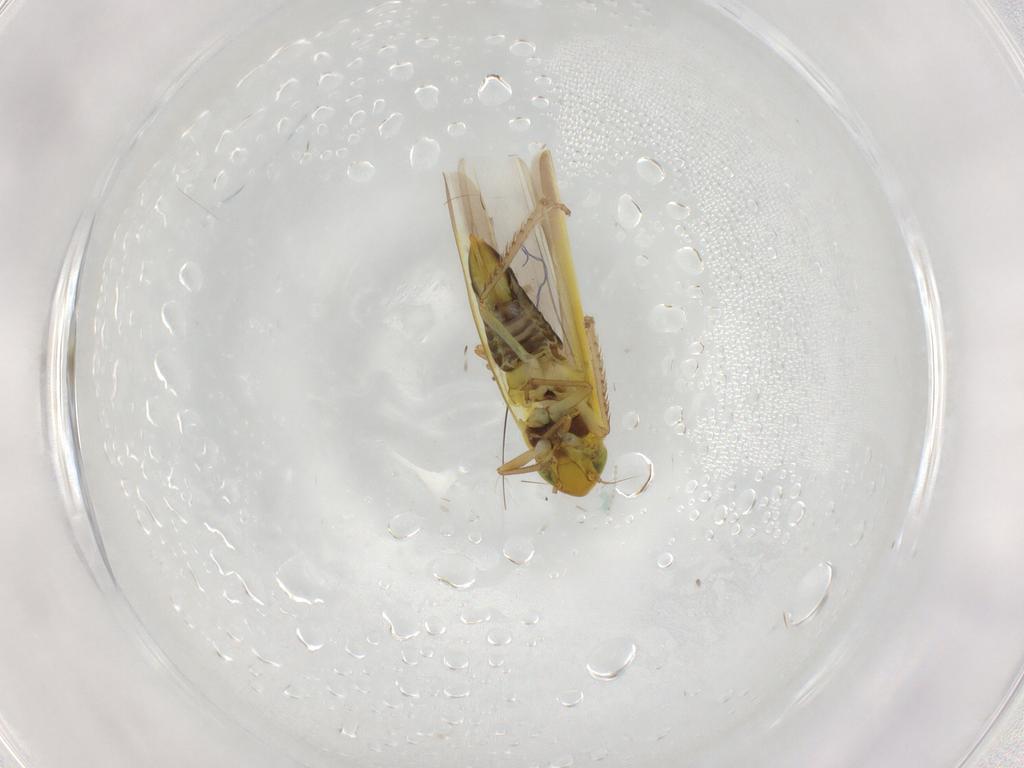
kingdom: Animalia
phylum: Arthropoda
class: Insecta
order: Hemiptera
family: Cicadellidae
